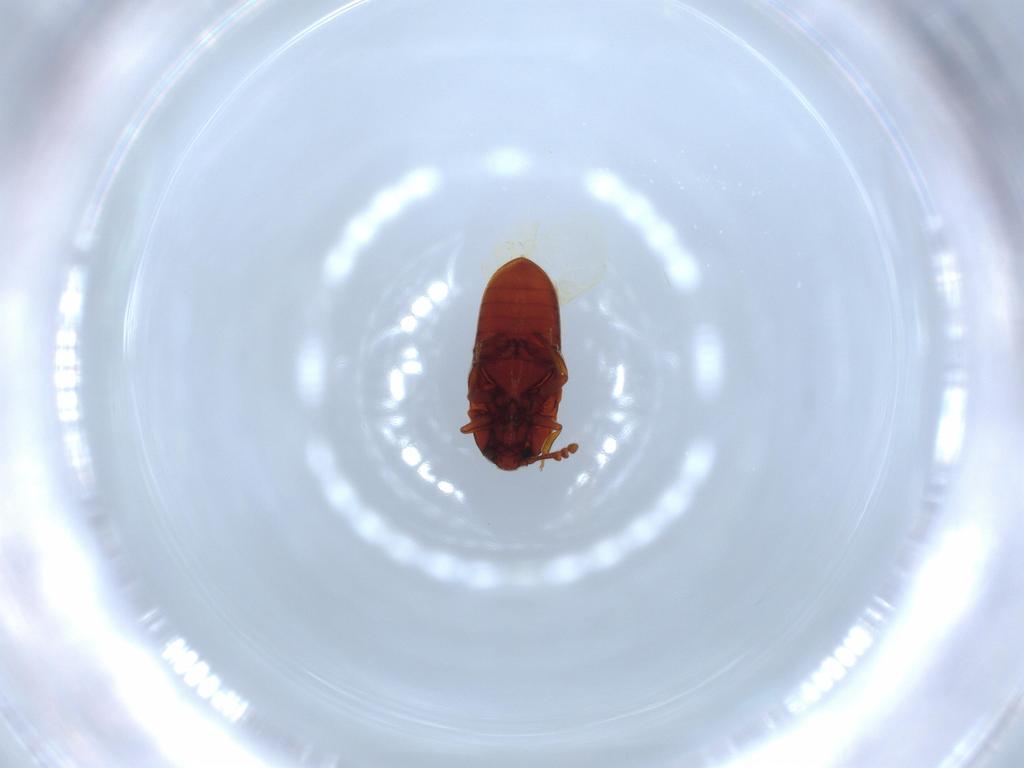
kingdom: Animalia
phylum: Arthropoda
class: Insecta
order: Coleoptera
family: Throscidae
